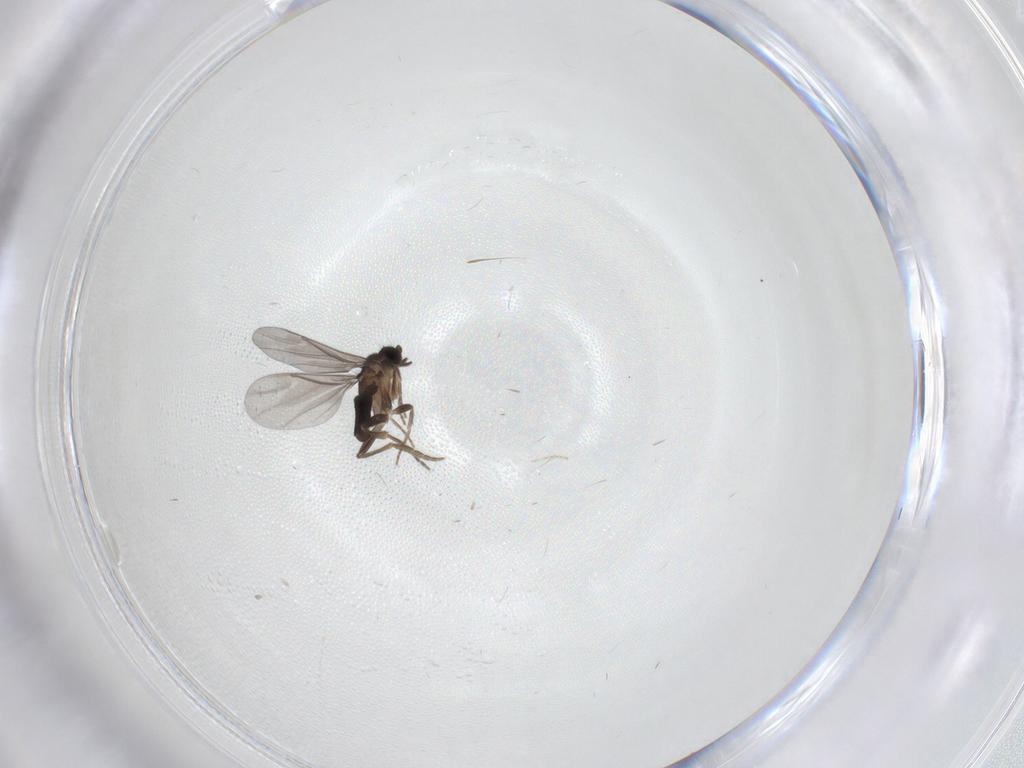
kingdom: Animalia
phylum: Arthropoda
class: Insecta
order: Diptera
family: Cecidomyiidae
